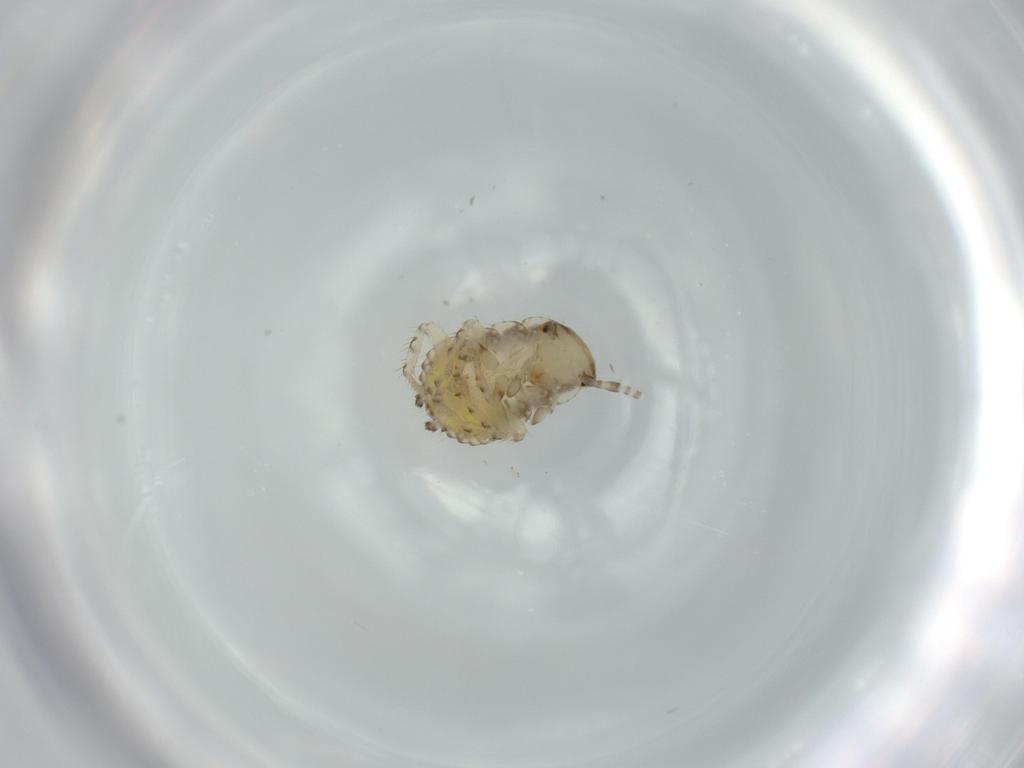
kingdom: Animalia
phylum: Arthropoda
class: Insecta
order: Blattodea
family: Ectobiidae
